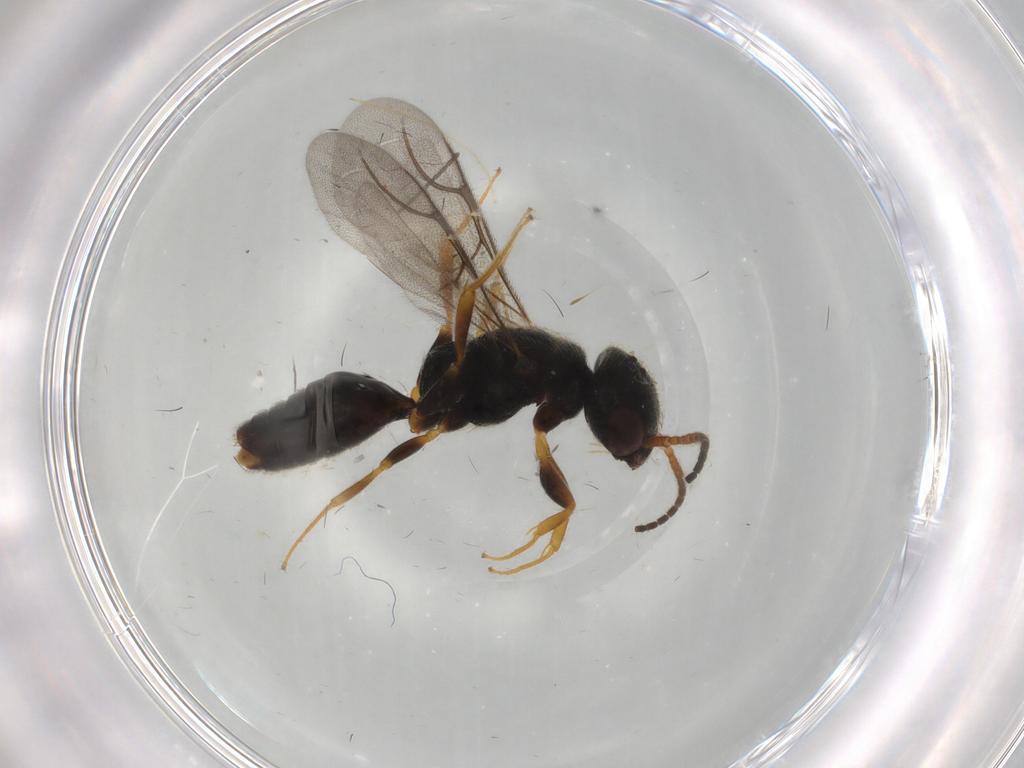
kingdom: Animalia
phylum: Arthropoda
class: Insecta
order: Hymenoptera
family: Bethylidae
